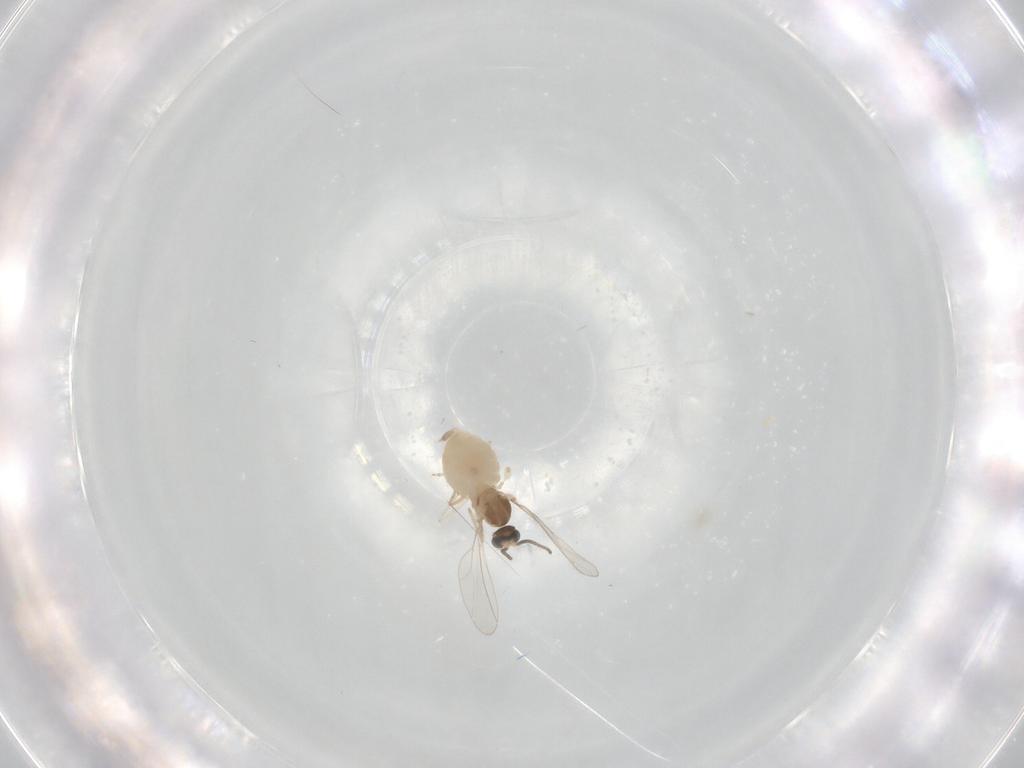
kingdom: Animalia
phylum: Arthropoda
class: Insecta
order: Diptera
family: Cecidomyiidae
